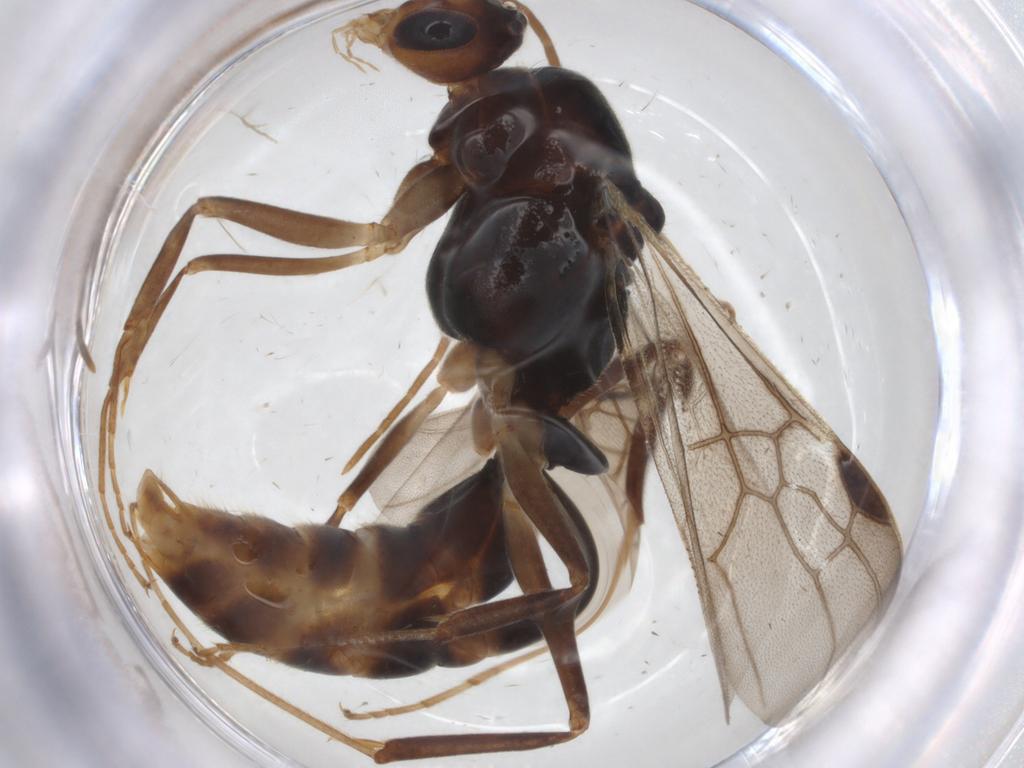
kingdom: Animalia
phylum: Arthropoda
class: Insecta
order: Hymenoptera
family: Formicidae
